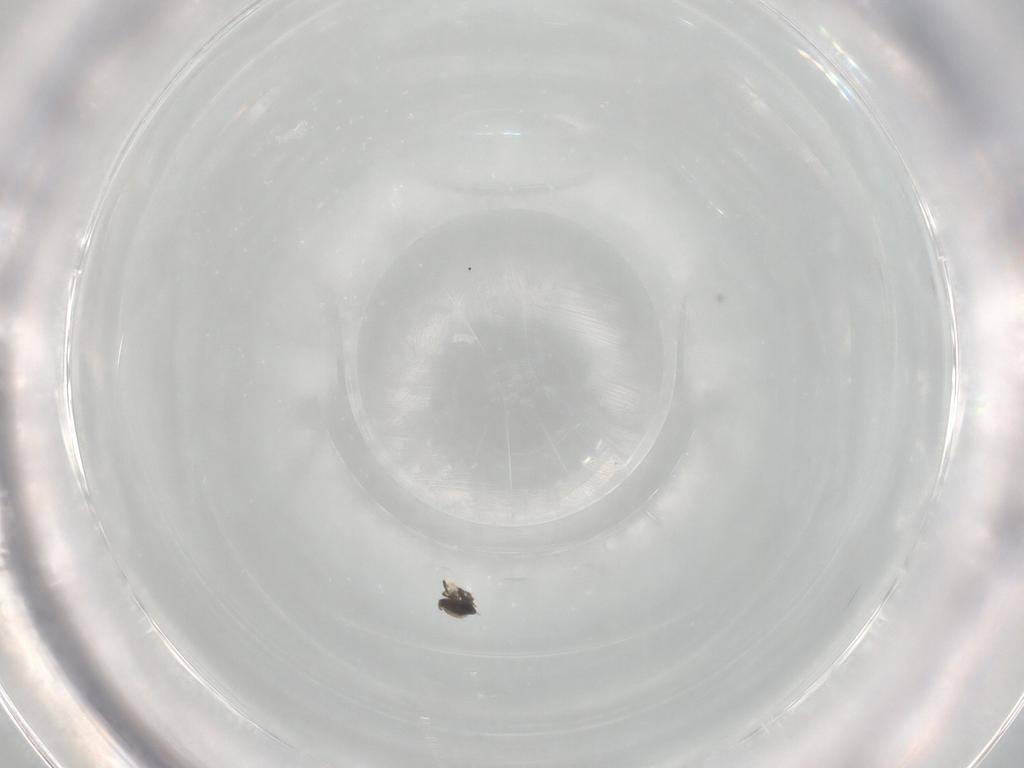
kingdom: Animalia
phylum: Arthropoda
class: Insecta
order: Hymenoptera
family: Scelionidae
